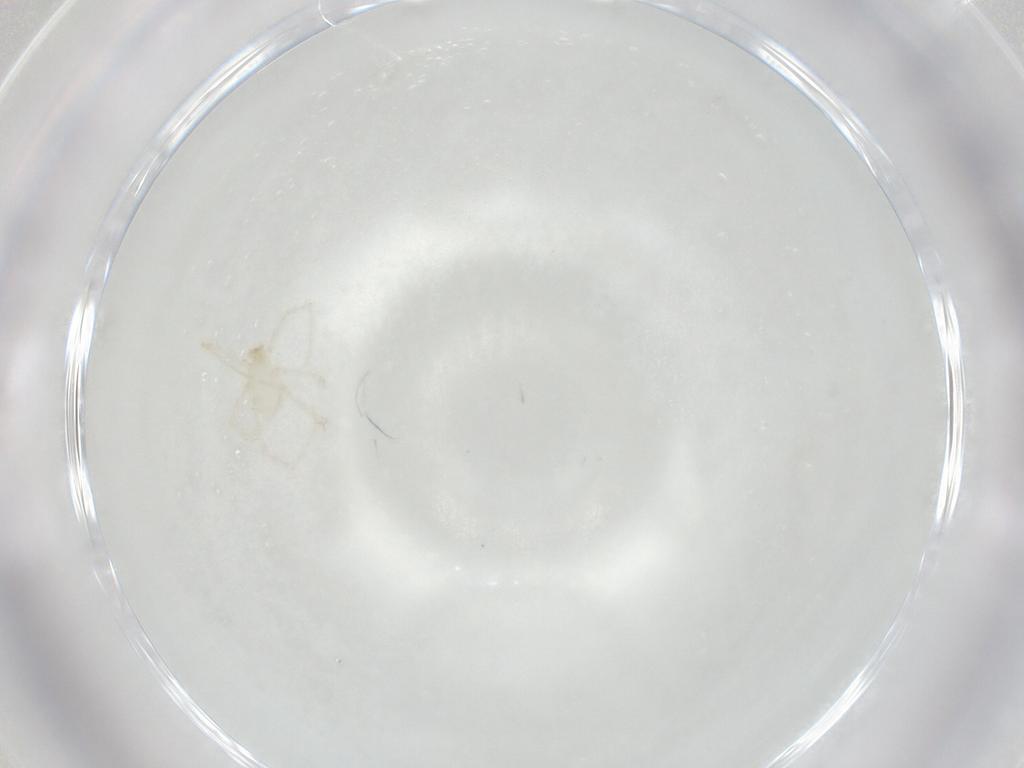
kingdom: Animalia
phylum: Arthropoda
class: Arachnida
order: Trombidiformes
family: Erythraeidae
